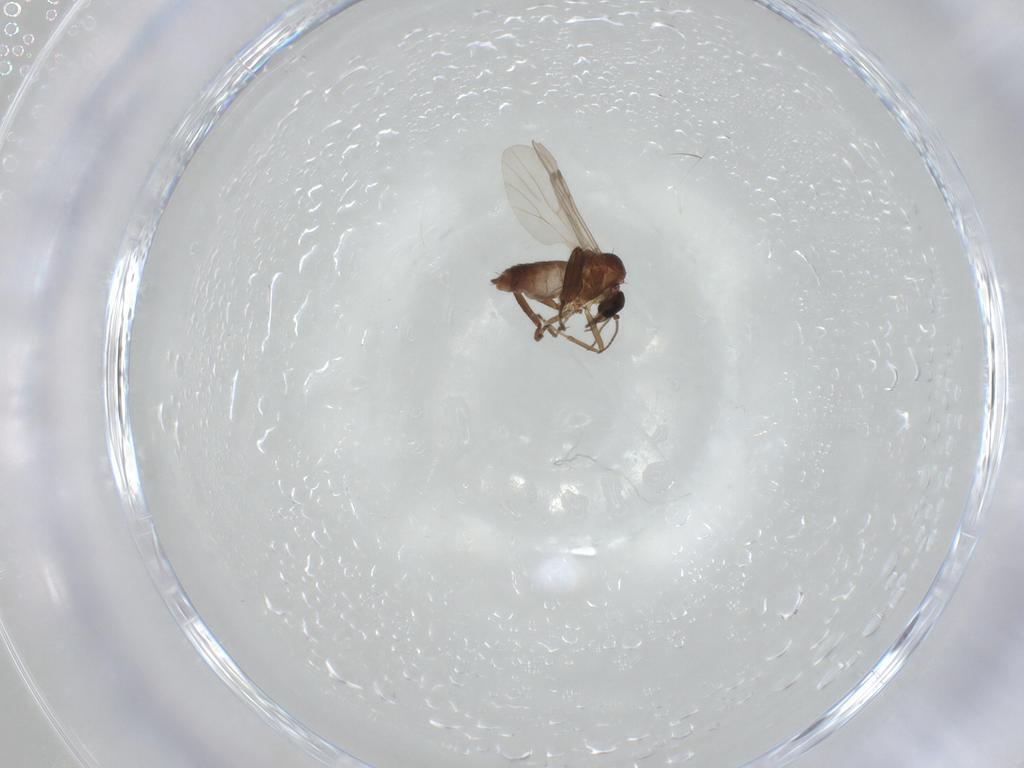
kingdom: Animalia
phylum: Arthropoda
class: Insecta
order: Diptera
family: Ceratopogonidae
